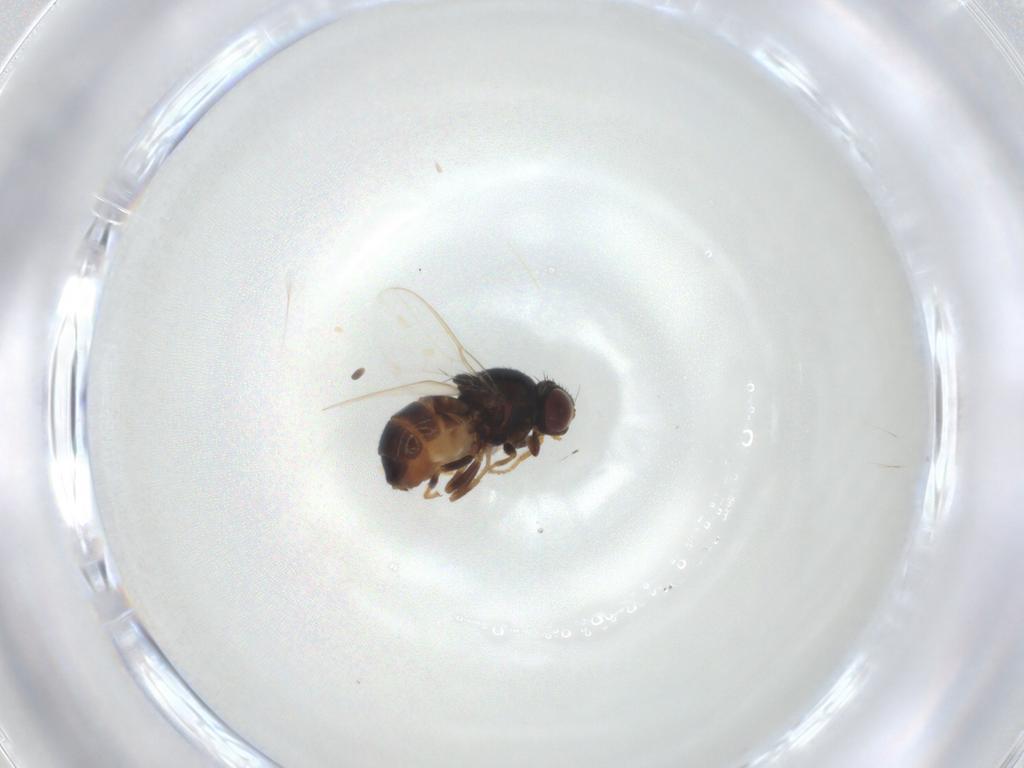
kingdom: Animalia
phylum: Arthropoda
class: Insecta
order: Diptera
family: Chloropidae
